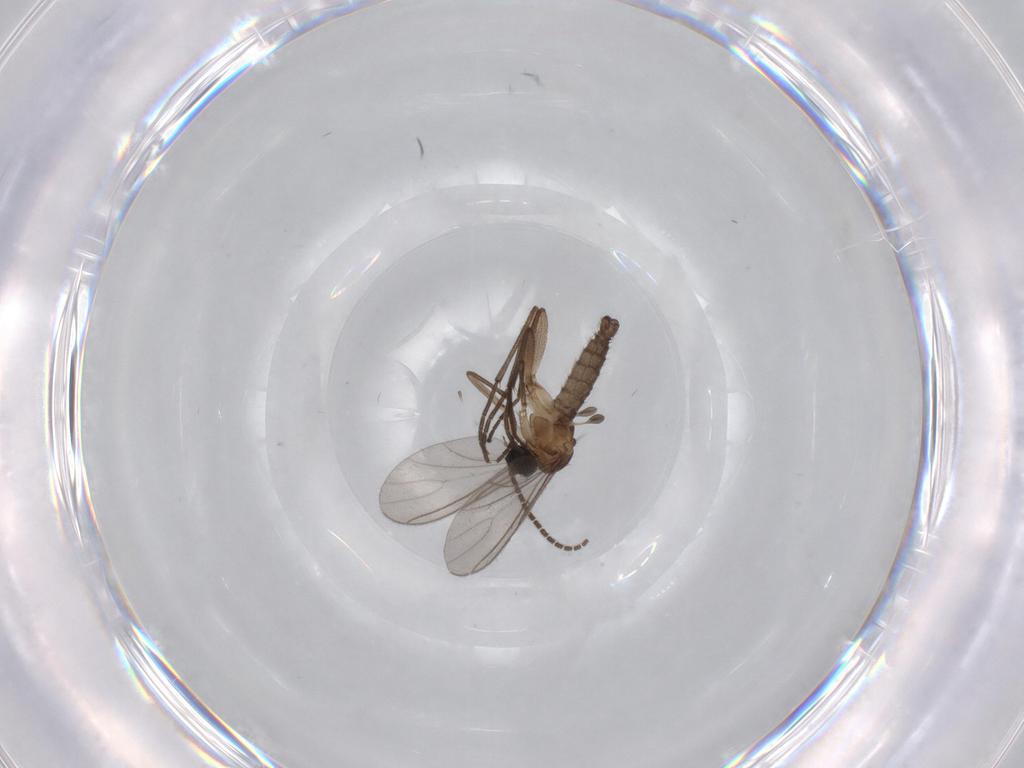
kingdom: Animalia
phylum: Arthropoda
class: Insecta
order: Diptera
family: Sciaridae
